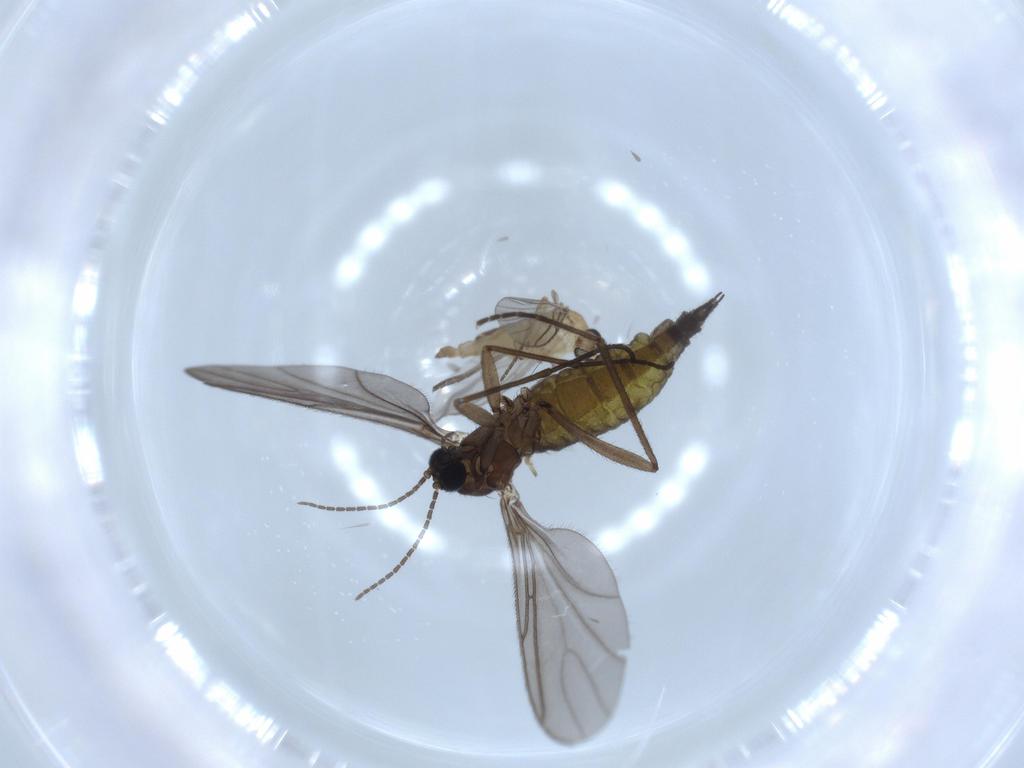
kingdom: Animalia
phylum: Arthropoda
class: Insecta
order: Diptera
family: Sciaridae
